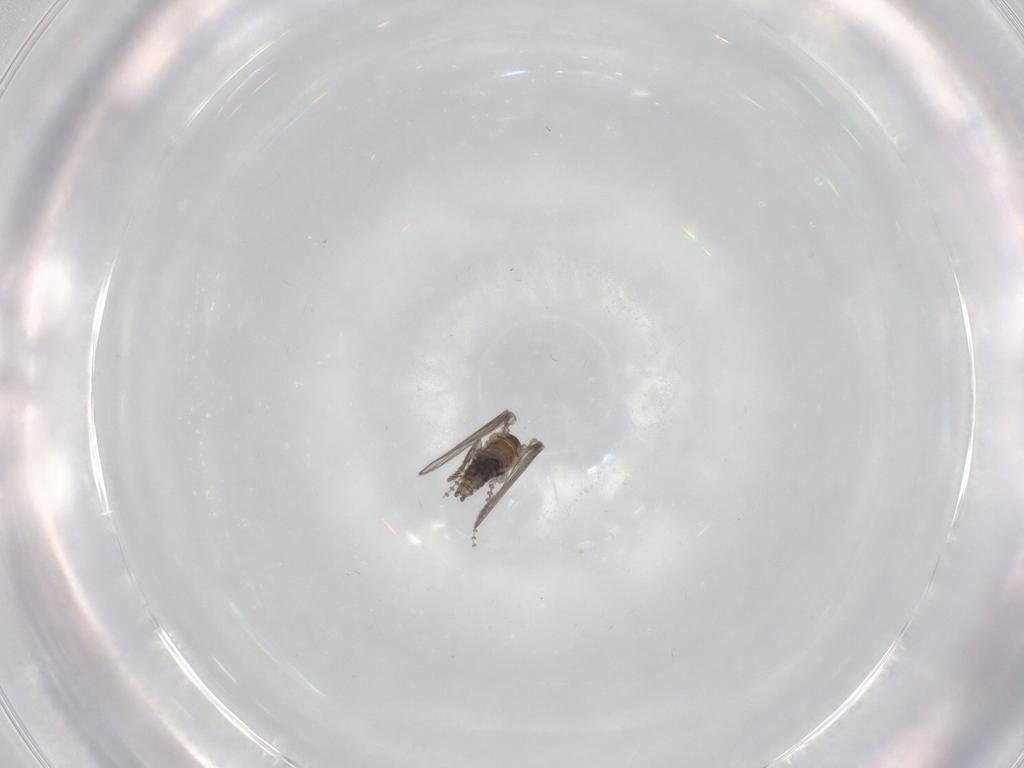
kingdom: Animalia
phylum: Arthropoda
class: Insecta
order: Diptera
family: Psychodidae
